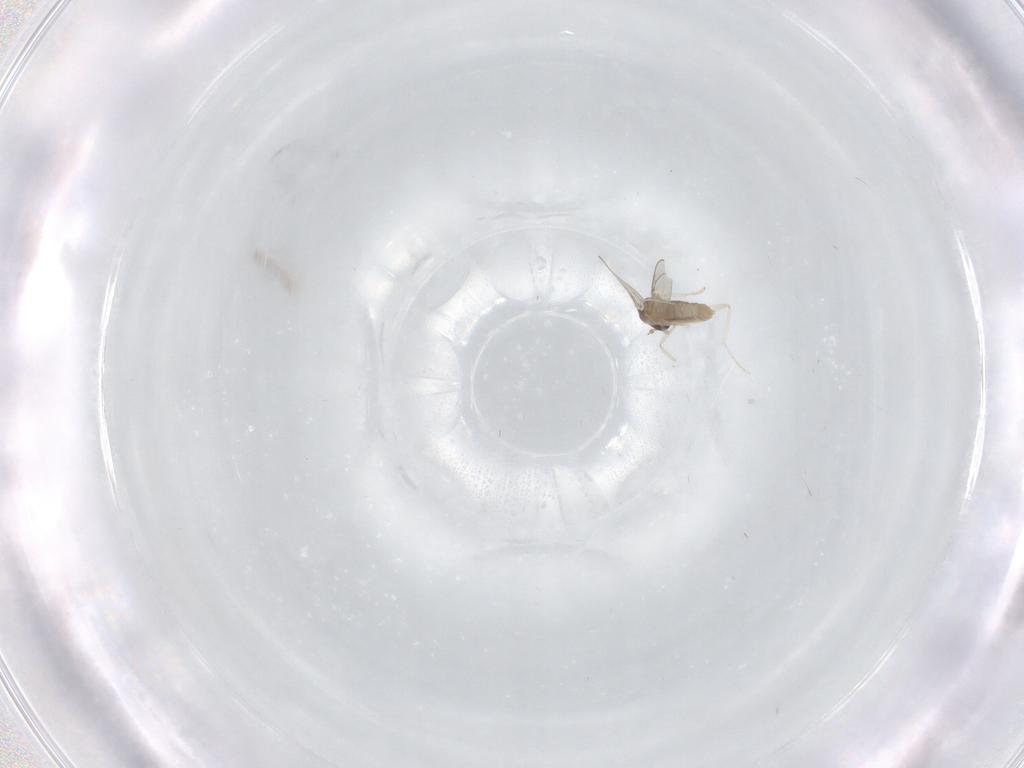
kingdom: Animalia
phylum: Arthropoda
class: Insecta
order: Diptera
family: Cecidomyiidae
